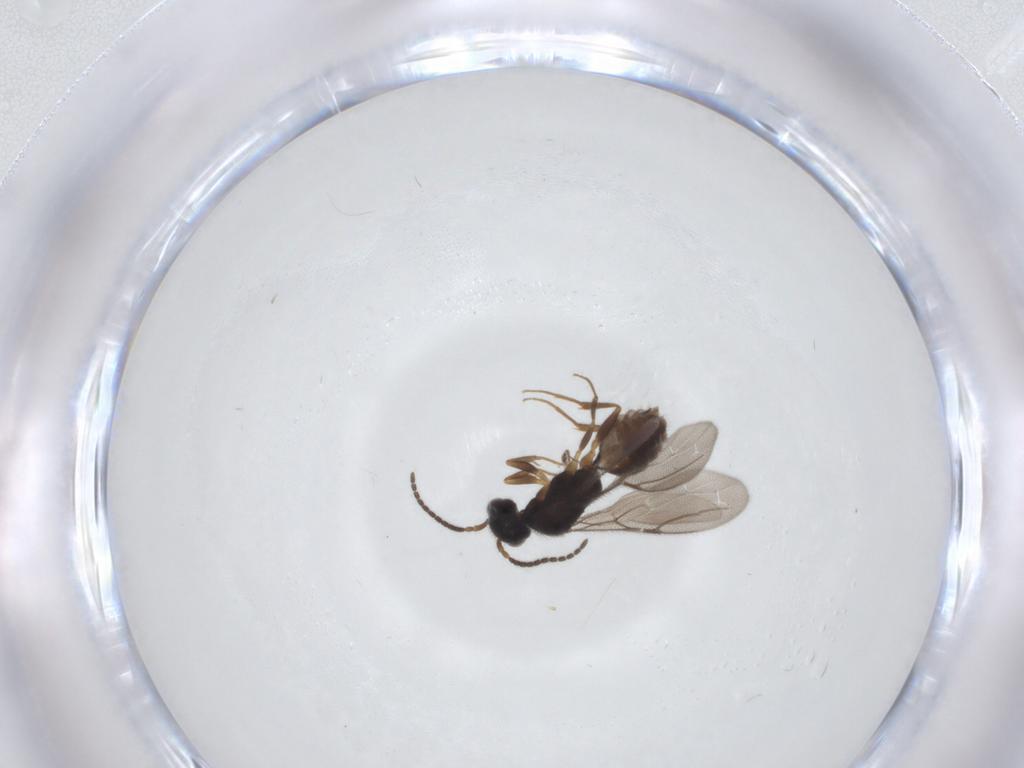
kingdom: Animalia
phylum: Arthropoda
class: Insecta
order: Hymenoptera
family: Bethylidae
